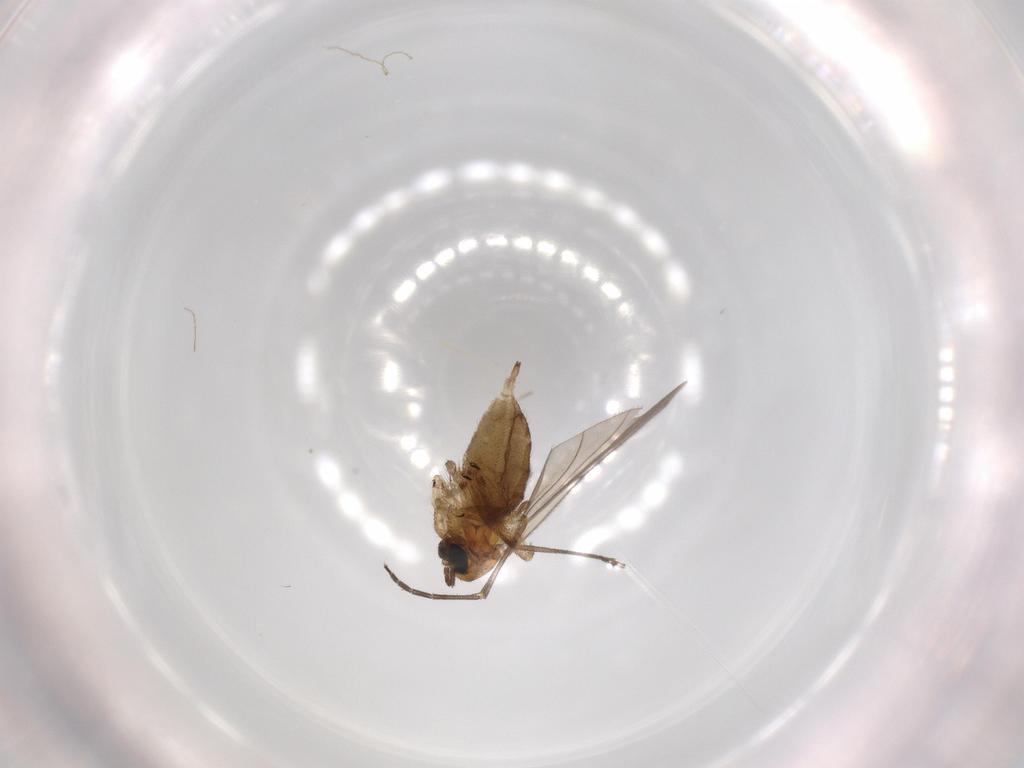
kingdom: Animalia
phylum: Arthropoda
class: Insecta
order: Diptera
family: Sciaridae
